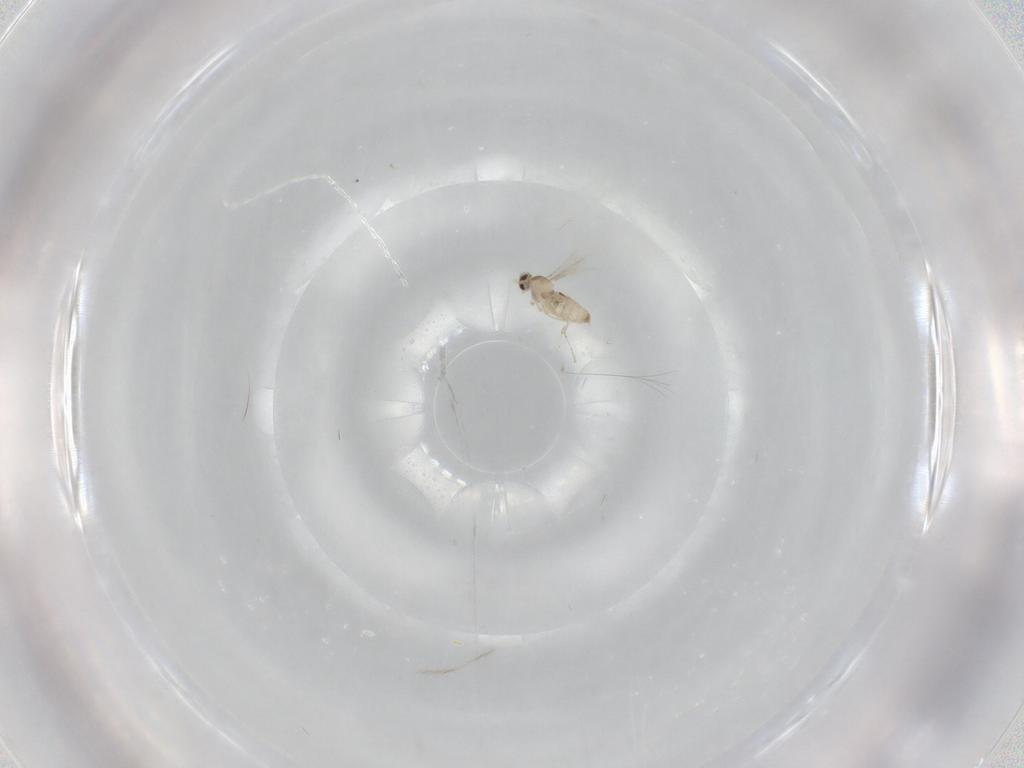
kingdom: Animalia
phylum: Arthropoda
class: Insecta
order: Diptera
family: Cecidomyiidae
